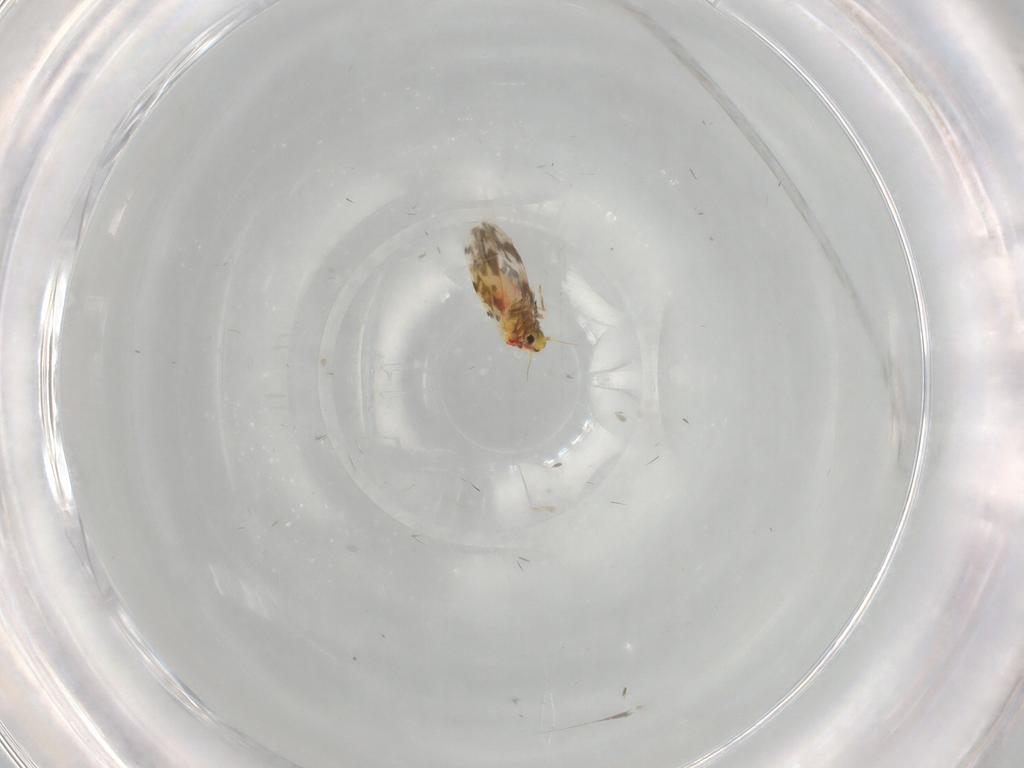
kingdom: Animalia
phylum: Arthropoda
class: Insecta
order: Hemiptera
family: Aleyrodidae
